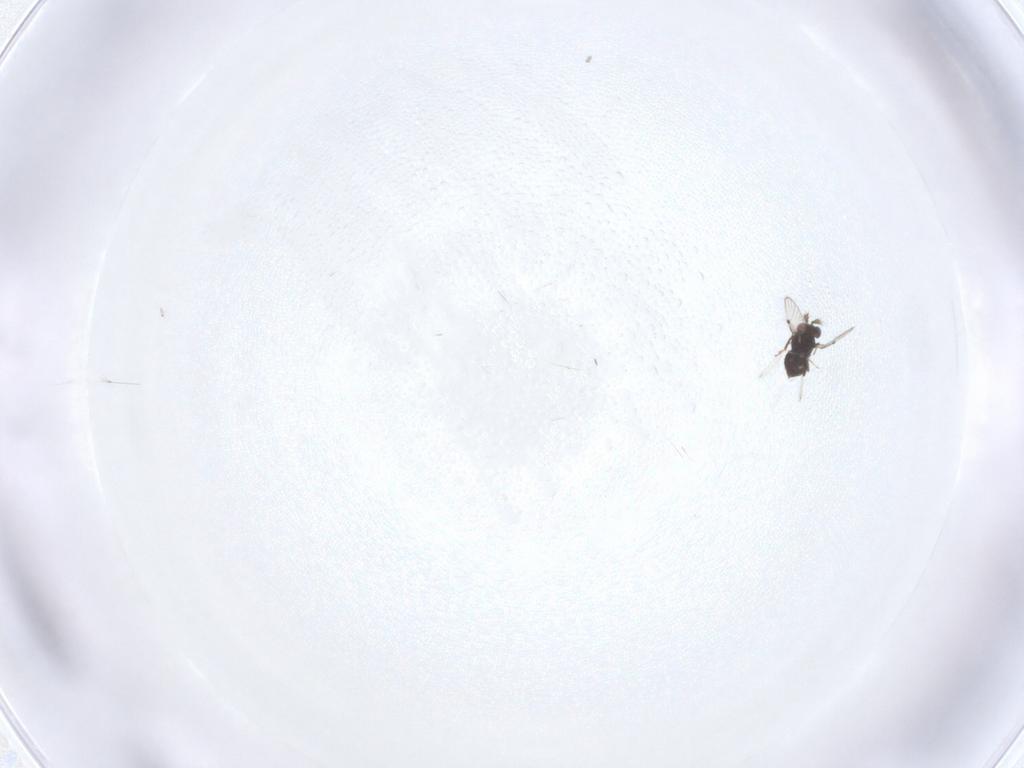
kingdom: Animalia
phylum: Arthropoda
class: Insecta
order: Hymenoptera
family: Trichogrammatidae
